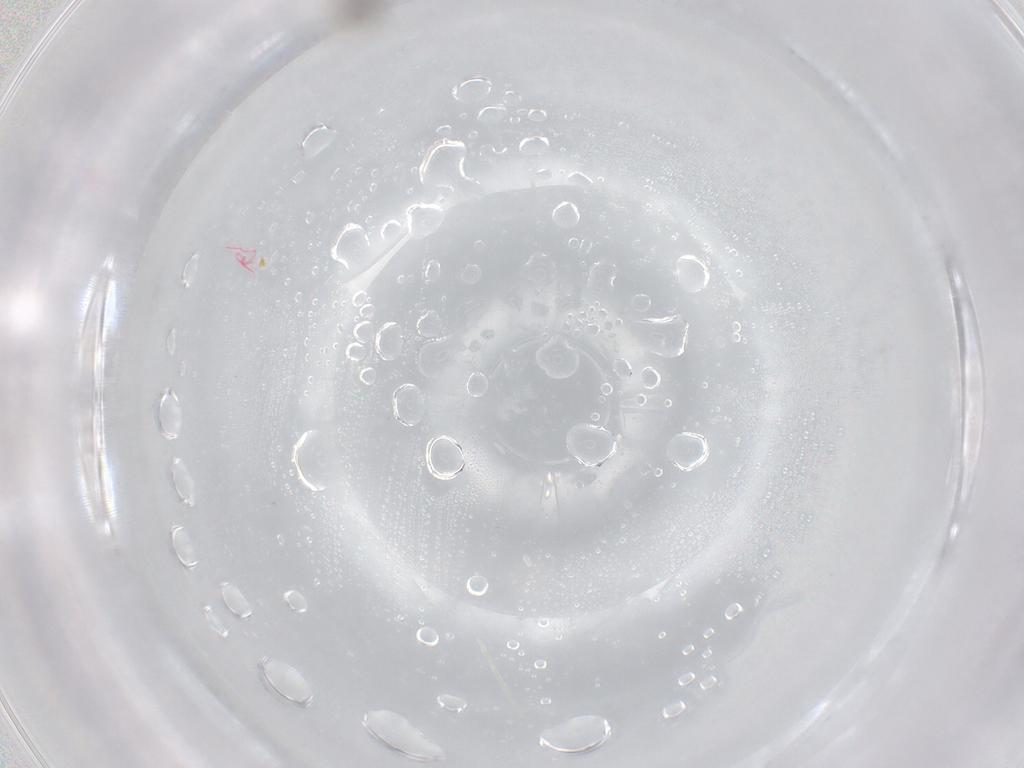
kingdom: Animalia
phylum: Arthropoda
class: Insecta
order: Diptera
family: Cecidomyiidae
